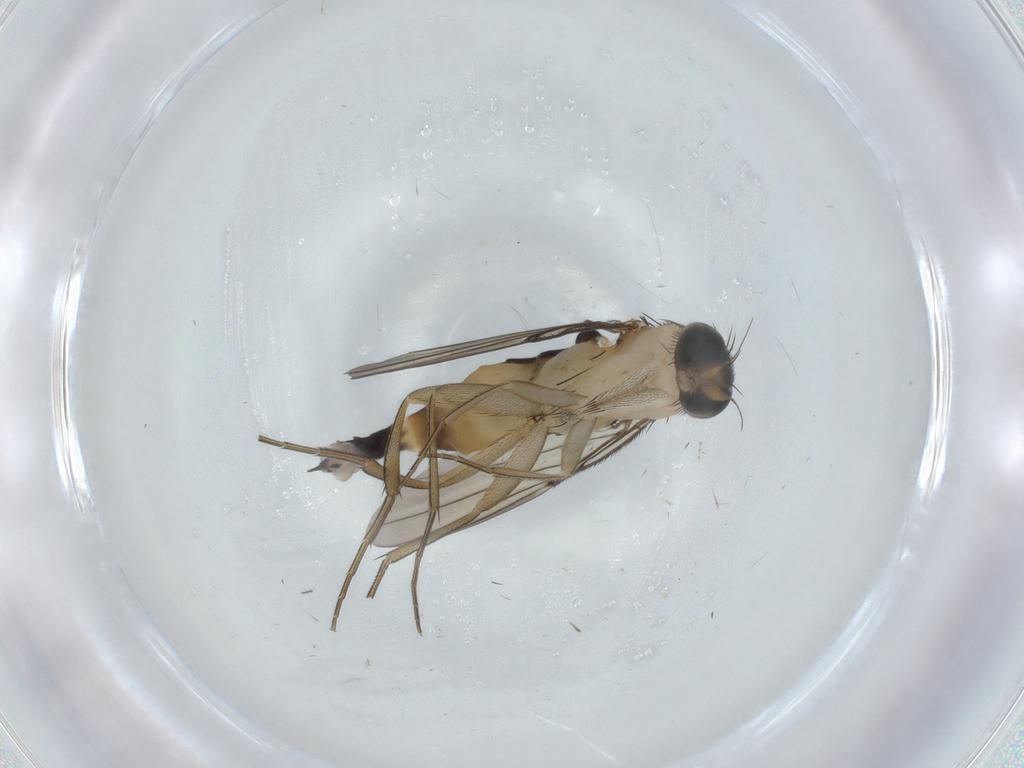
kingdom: Animalia
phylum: Arthropoda
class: Insecta
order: Diptera
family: Phoridae
